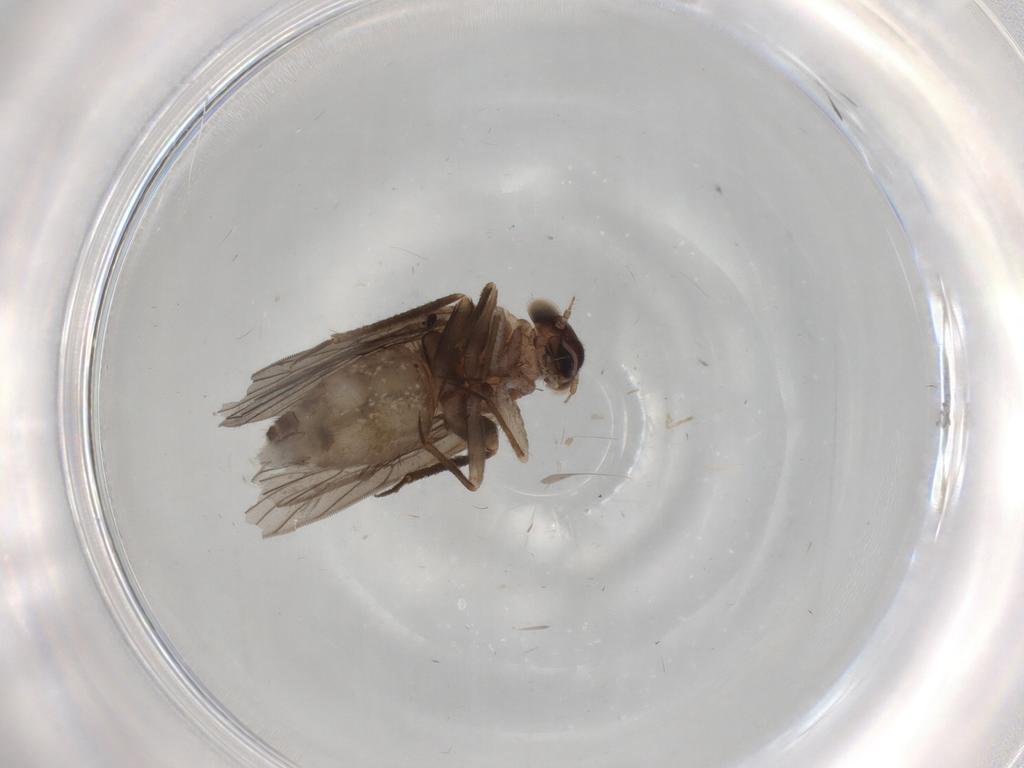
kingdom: Animalia
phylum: Arthropoda
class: Insecta
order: Psocodea
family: Lepidopsocidae
